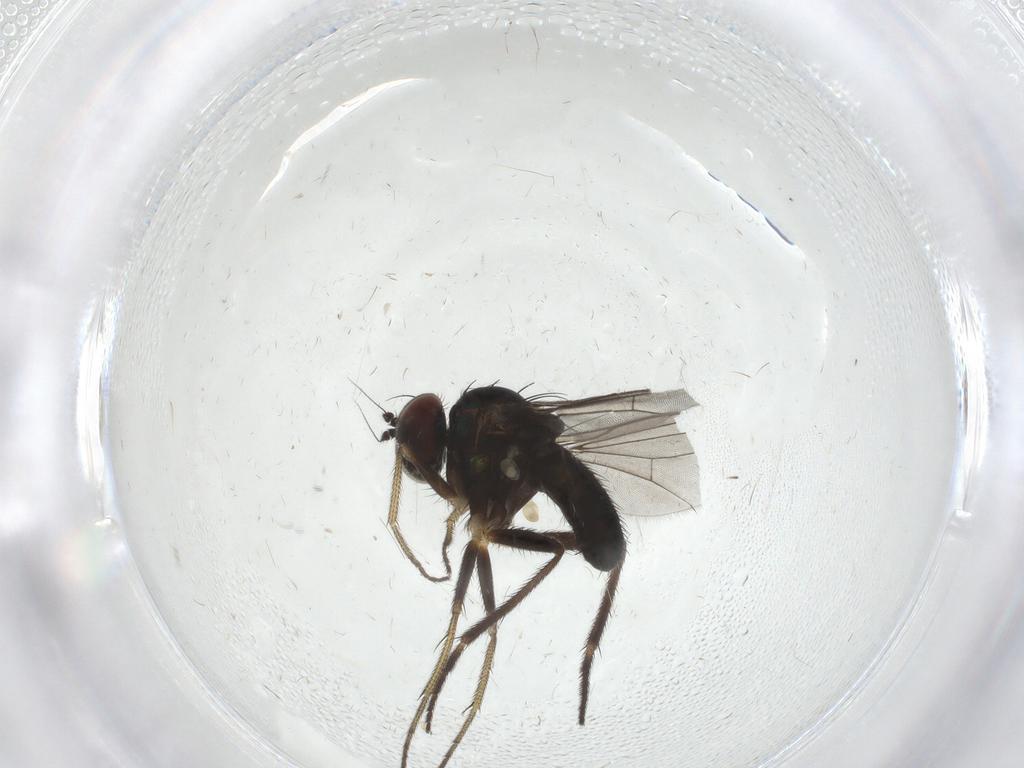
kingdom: Animalia
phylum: Arthropoda
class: Insecta
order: Diptera
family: Sciaridae
